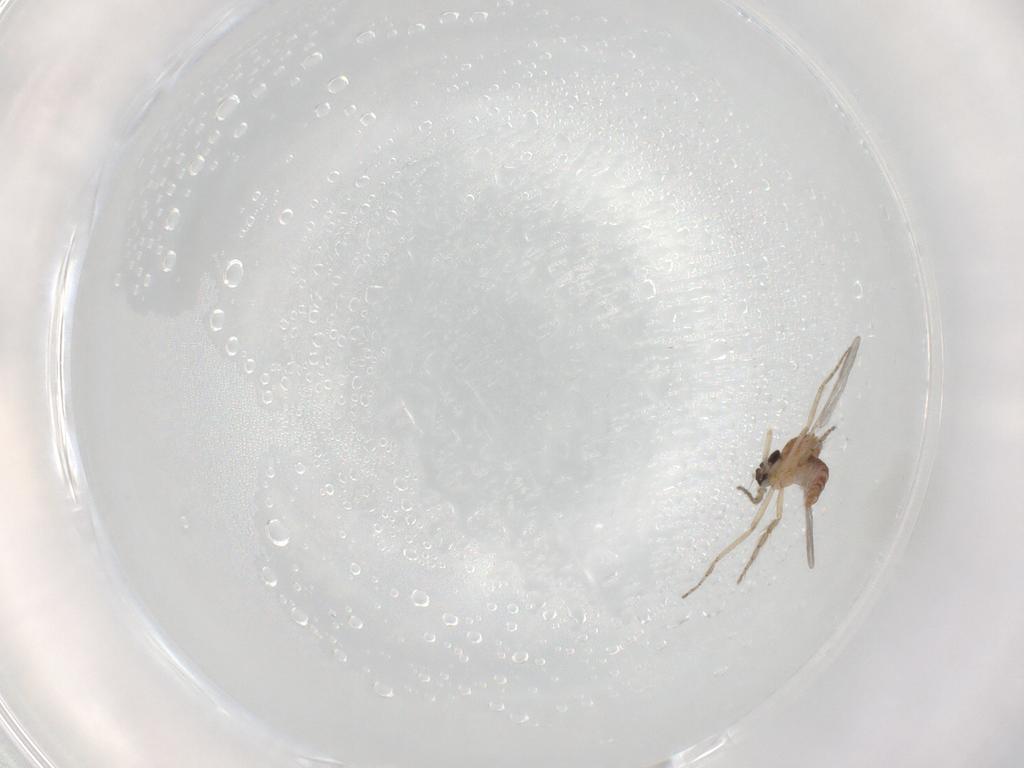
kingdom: Animalia
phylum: Arthropoda
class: Insecta
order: Diptera
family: Ceratopogonidae
